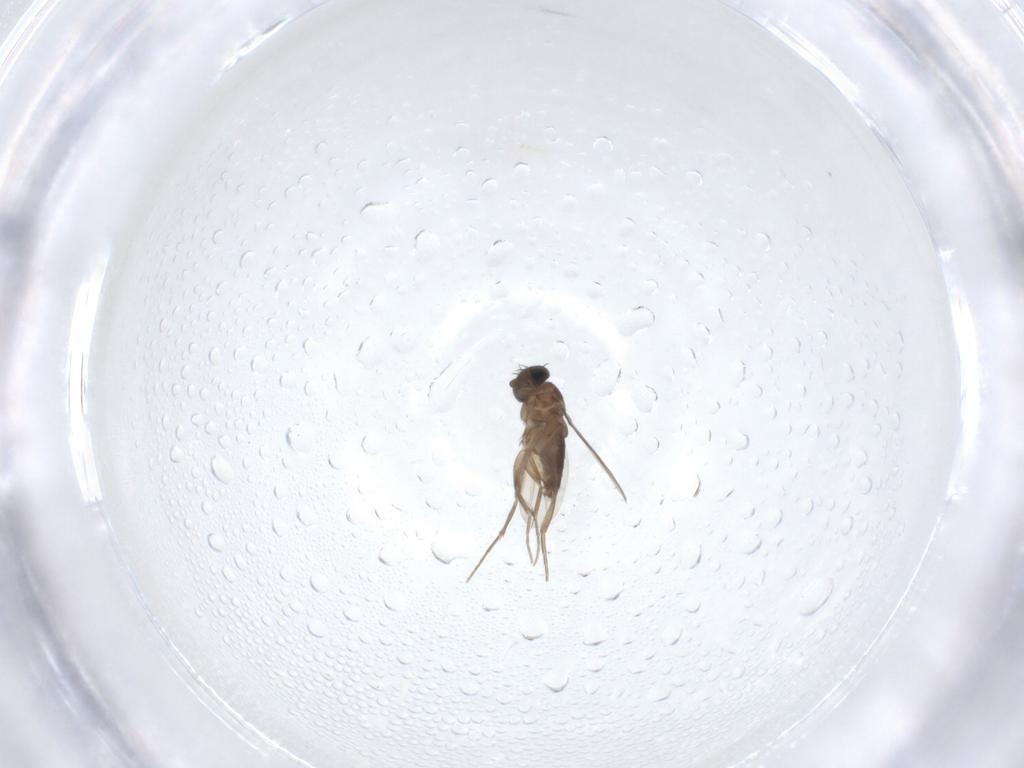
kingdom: Animalia
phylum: Arthropoda
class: Insecta
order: Diptera
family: Phoridae
